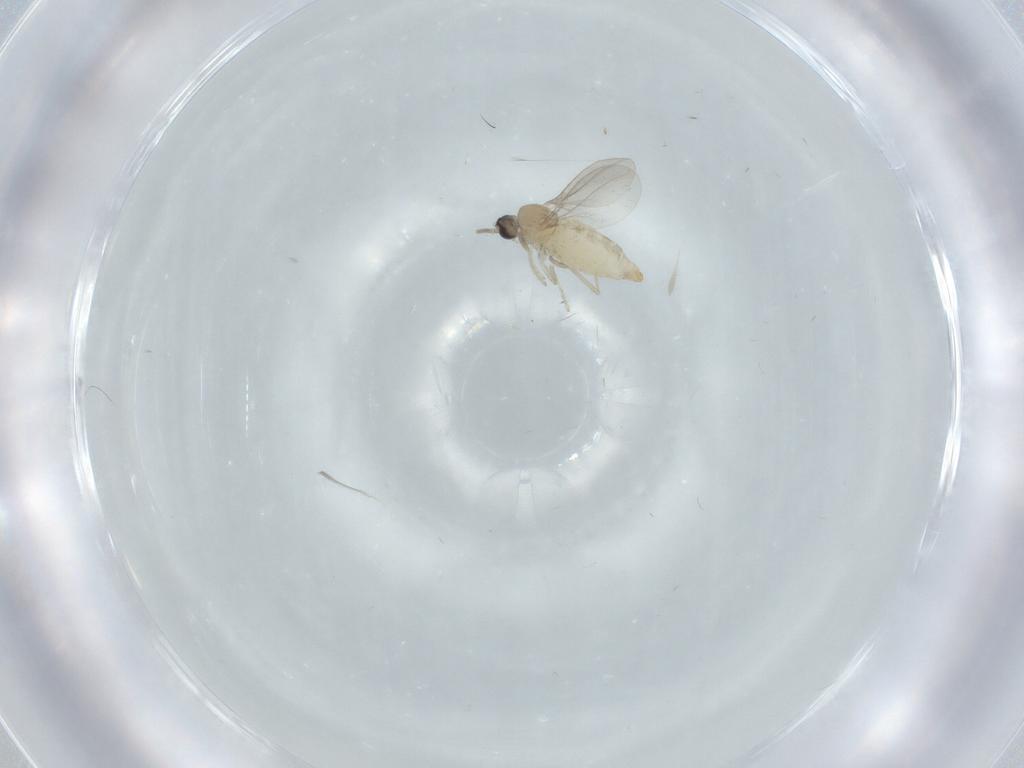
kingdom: Animalia
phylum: Arthropoda
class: Insecta
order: Diptera
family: Cecidomyiidae
